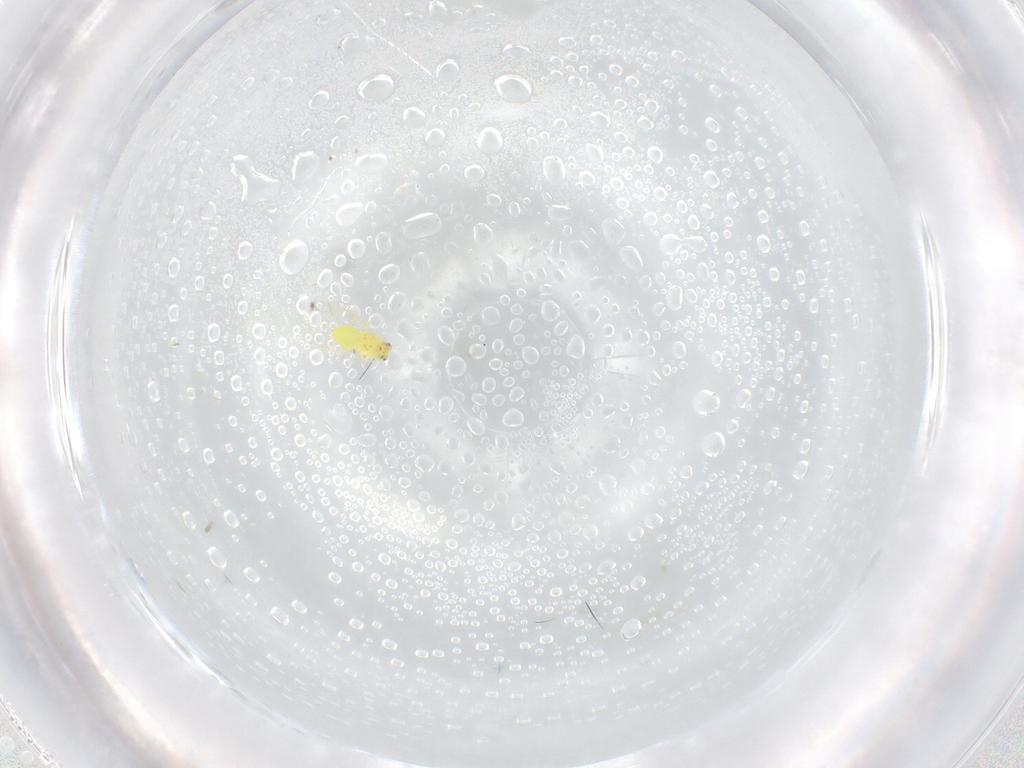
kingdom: Animalia
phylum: Arthropoda
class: Insecta
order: Hymenoptera
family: Aphelinidae
